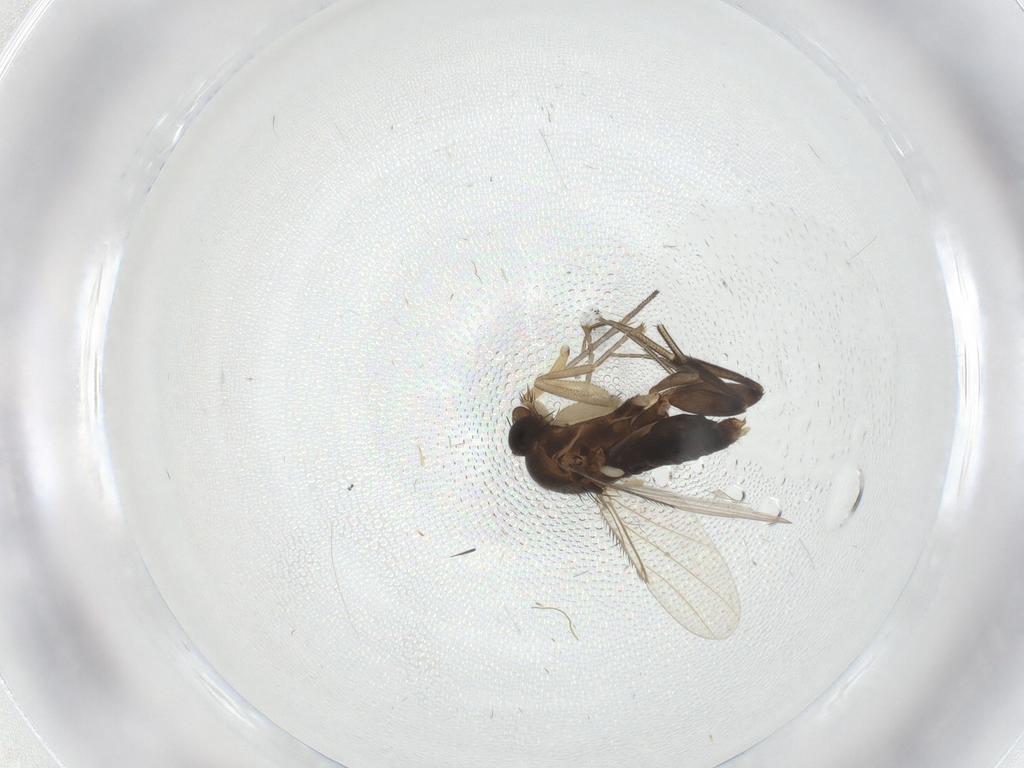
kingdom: Animalia
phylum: Arthropoda
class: Insecta
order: Diptera
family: Sciaridae
